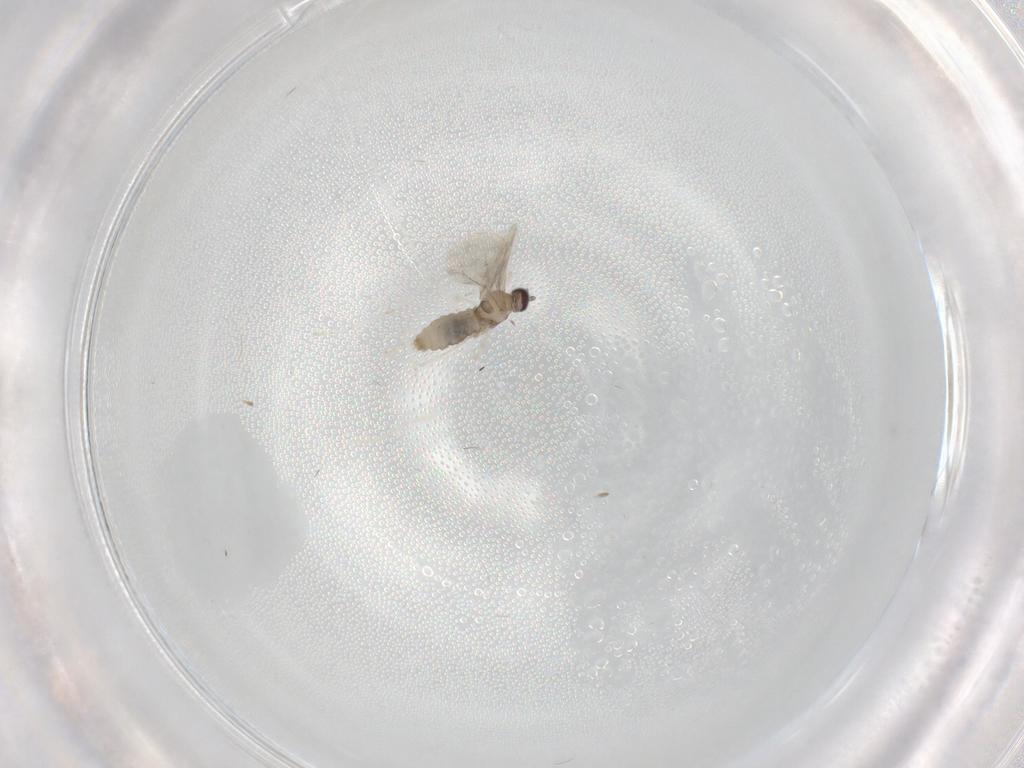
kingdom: Animalia
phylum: Arthropoda
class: Insecta
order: Diptera
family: Cecidomyiidae
